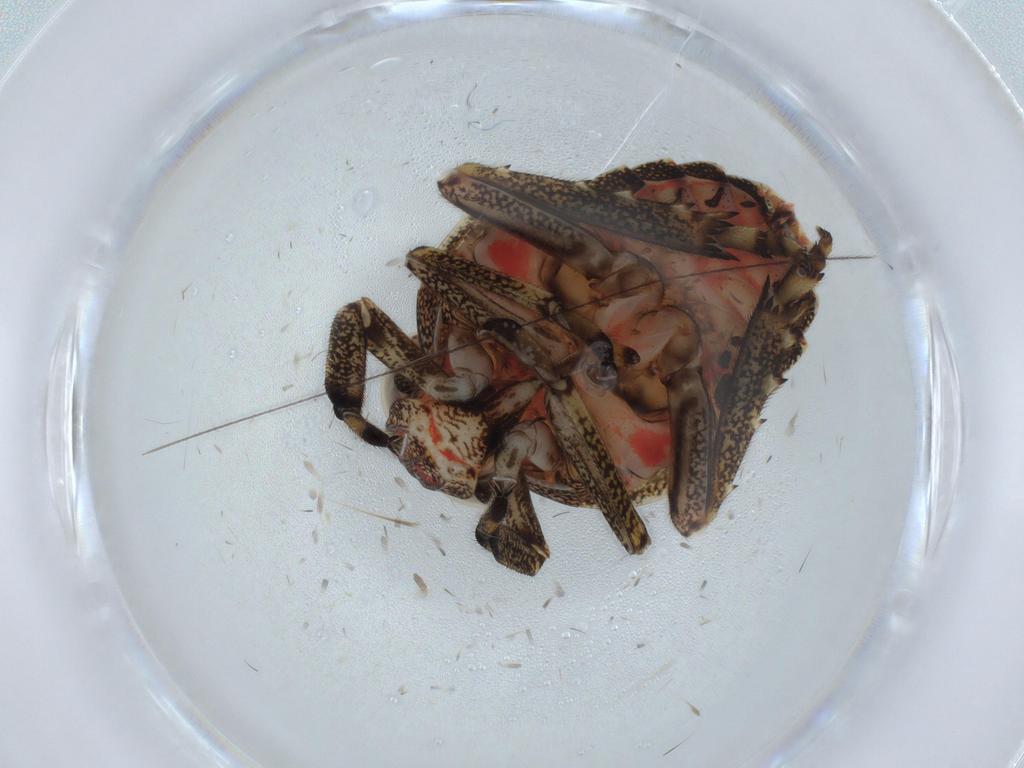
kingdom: Animalia
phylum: Arthropoda
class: Insecta
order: Hemiptera
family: Issidae
